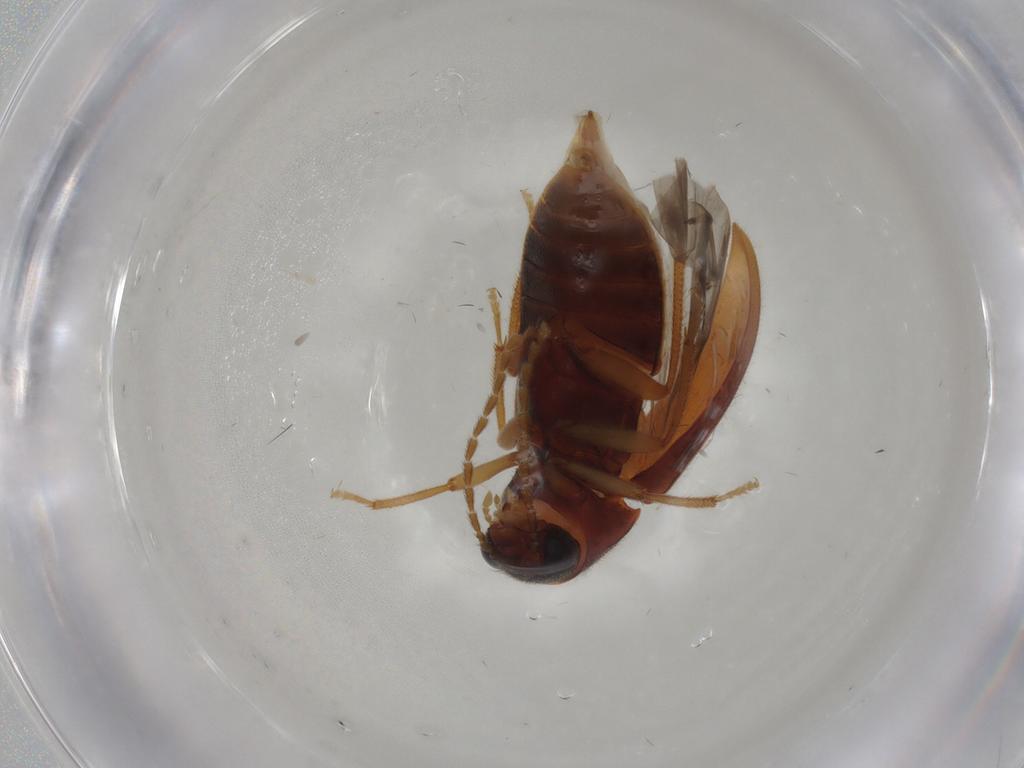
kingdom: Animalia
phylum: Arthropoda
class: Insecta
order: Coleoptera
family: Ptilodactylidae
